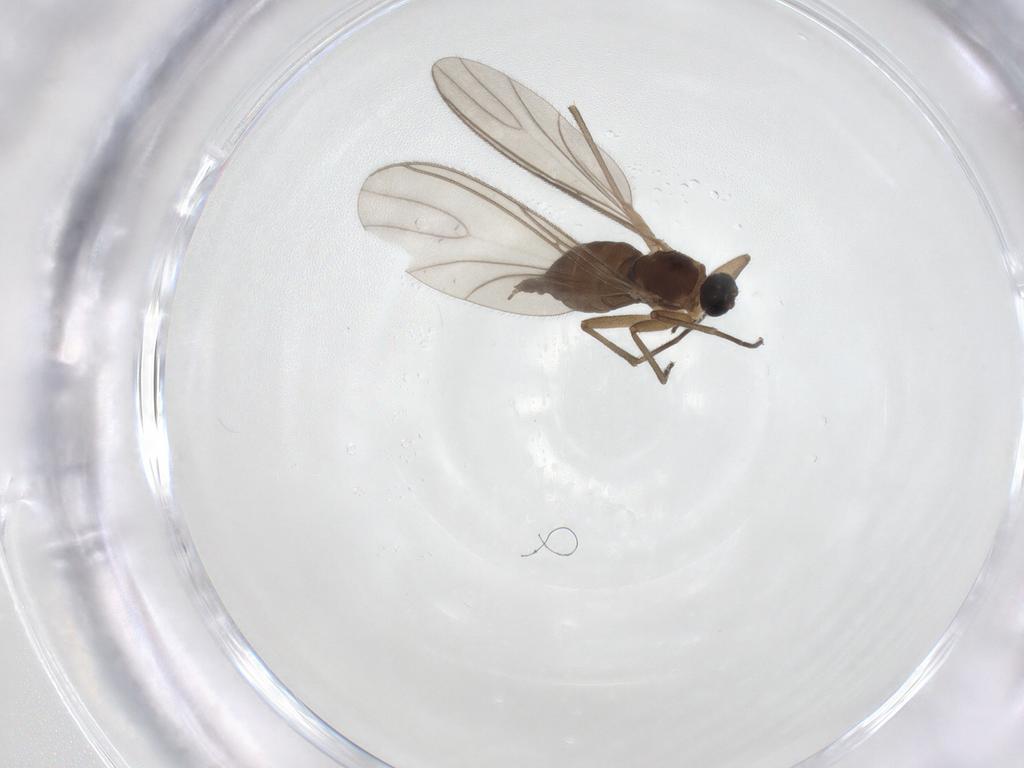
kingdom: Animalia
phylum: Arthropoda
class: Insecta
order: Diptera
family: Sciaridae
